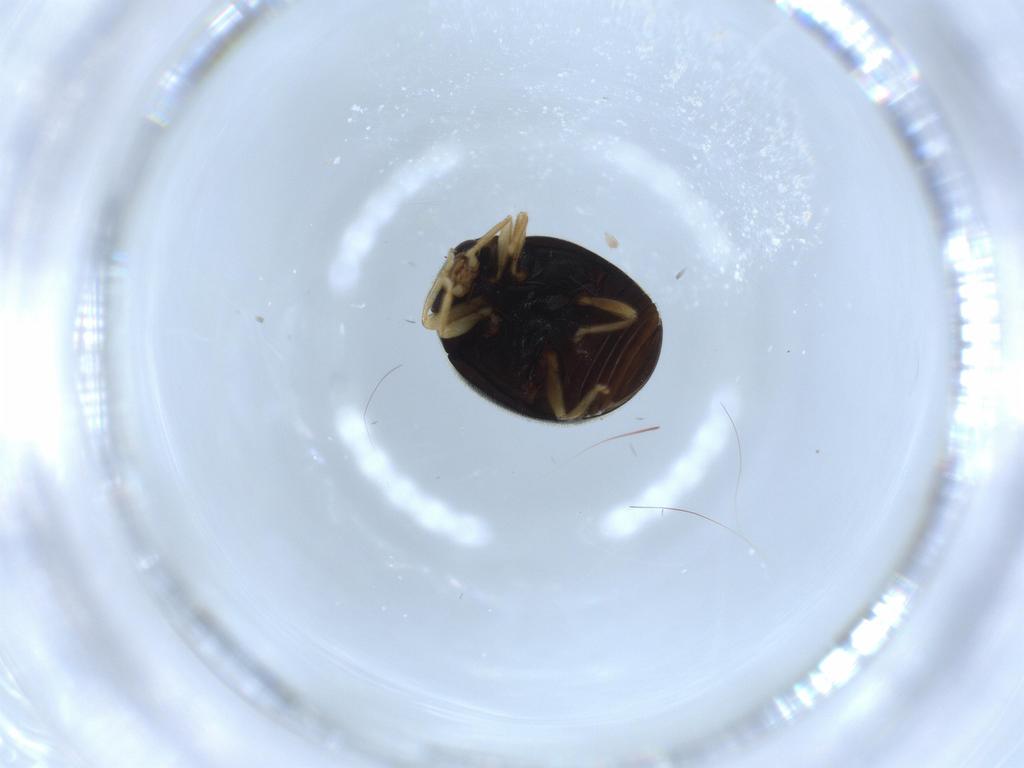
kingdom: Animalia
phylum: Arthropoda
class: Insecta
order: Coleoptera
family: Coccinellidae
